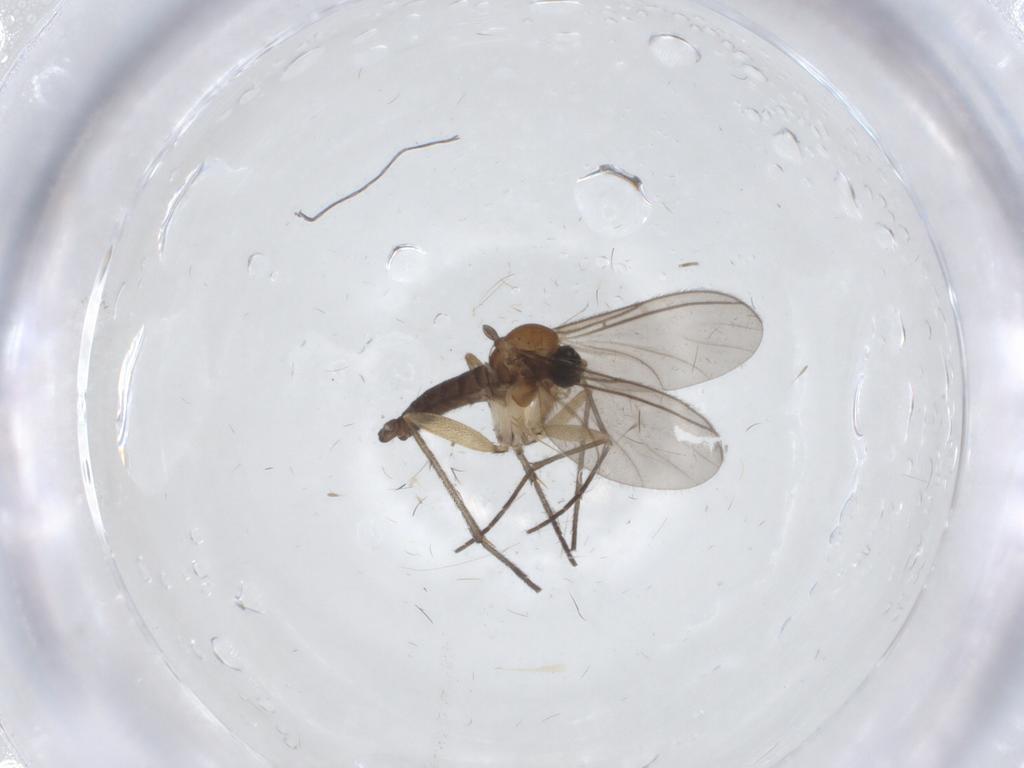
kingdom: Animalia
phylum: Arthropoda
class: Insecta
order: Diptera
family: Sciaridae
